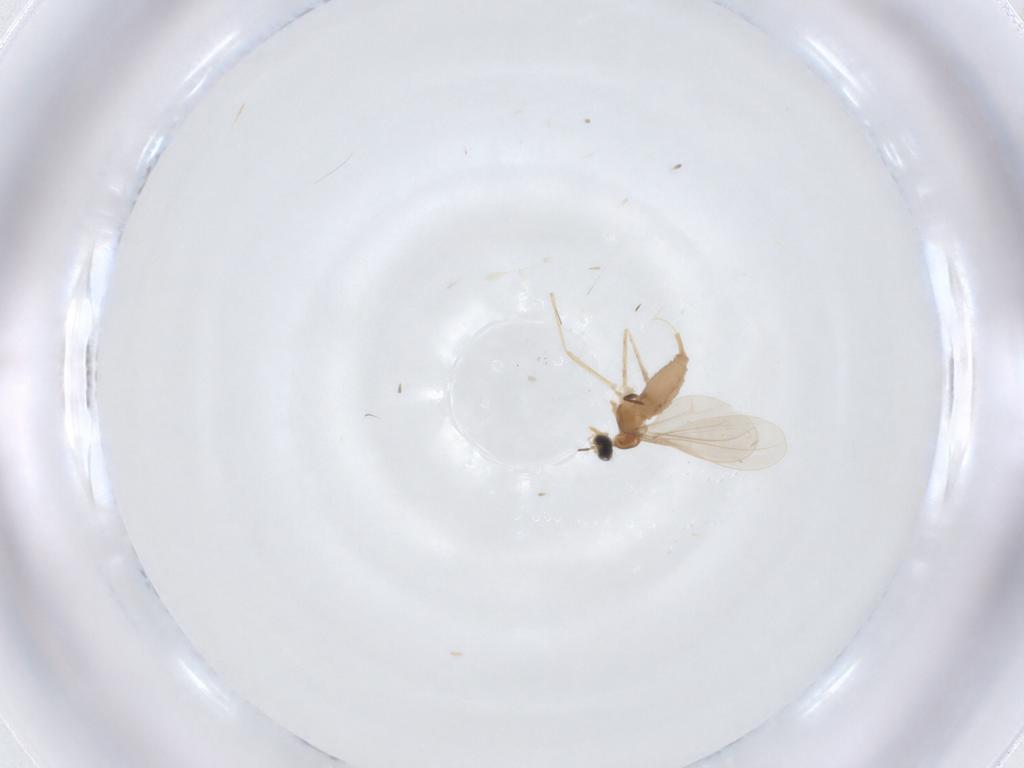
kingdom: Animalia
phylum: Arthropoda
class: Insecta
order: Diptera
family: Cecidomyiidae
